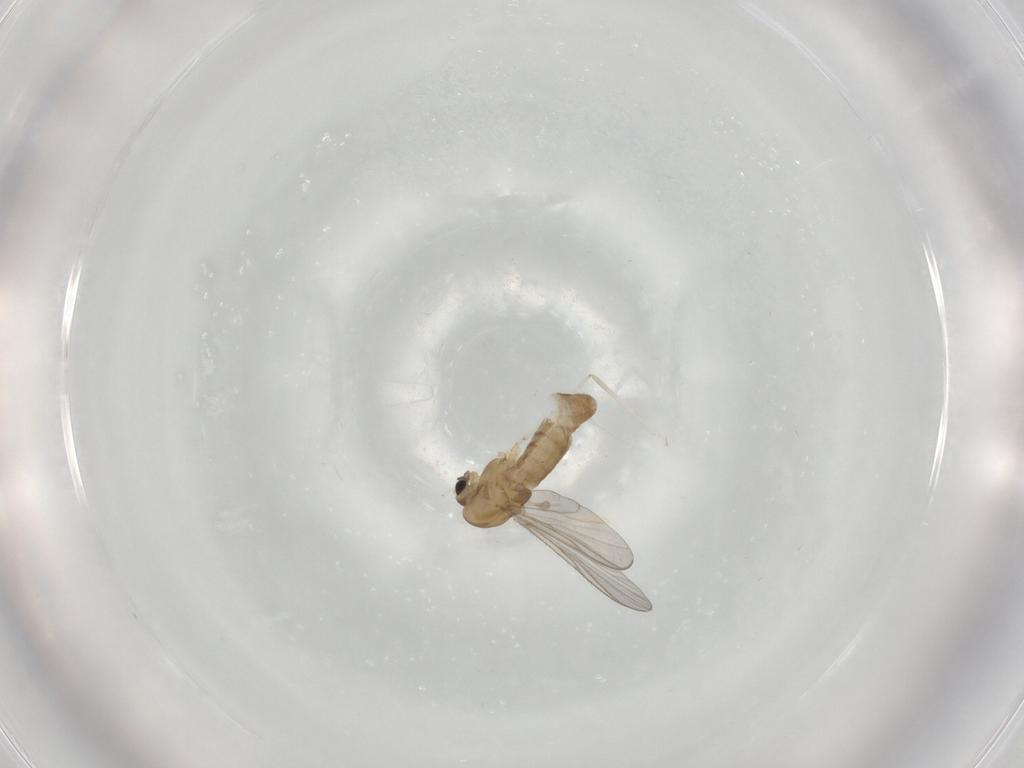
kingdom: Animalia
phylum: Arthropoda
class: Insecta
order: Diptera
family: Chironomidae
